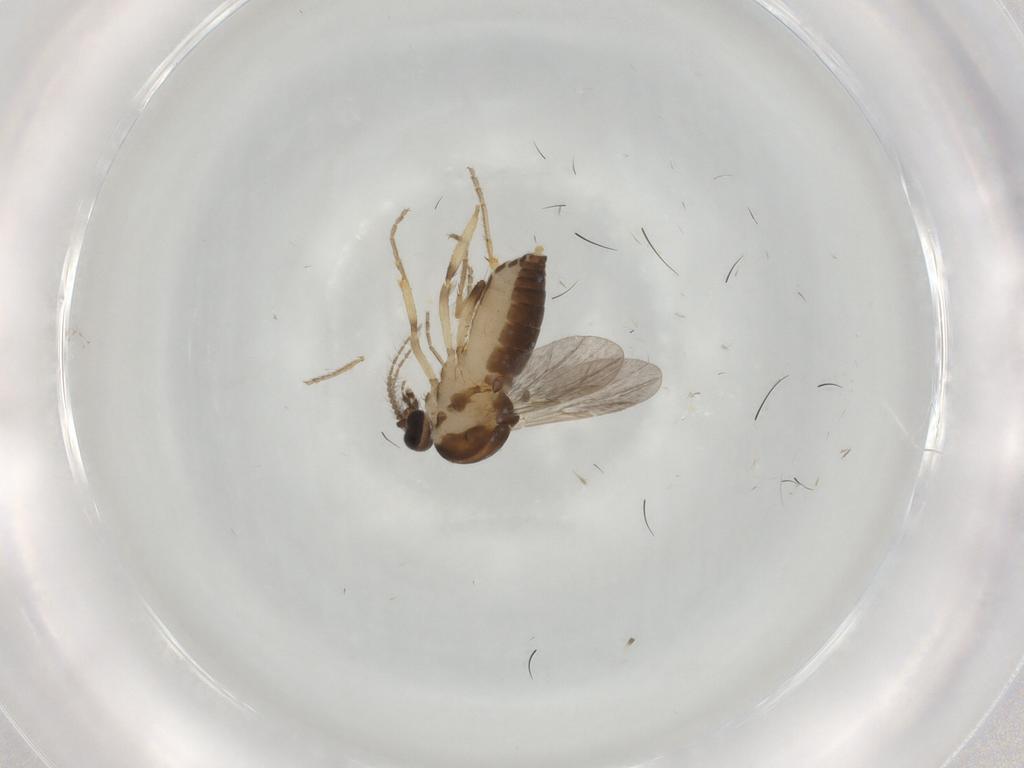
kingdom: Animalia
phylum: Arthropoda
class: Insecta
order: Diptera
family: Ceratopogonidae
